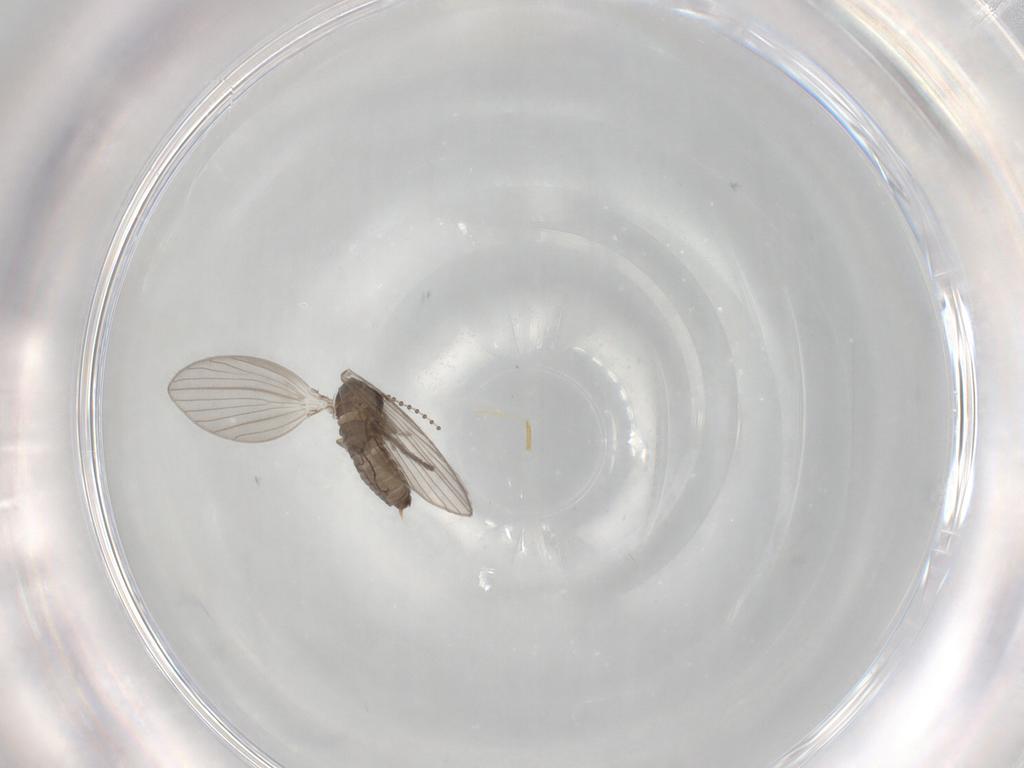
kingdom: Animalia
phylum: Arthropoda
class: Insecta
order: Diptera
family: Psychodidae
